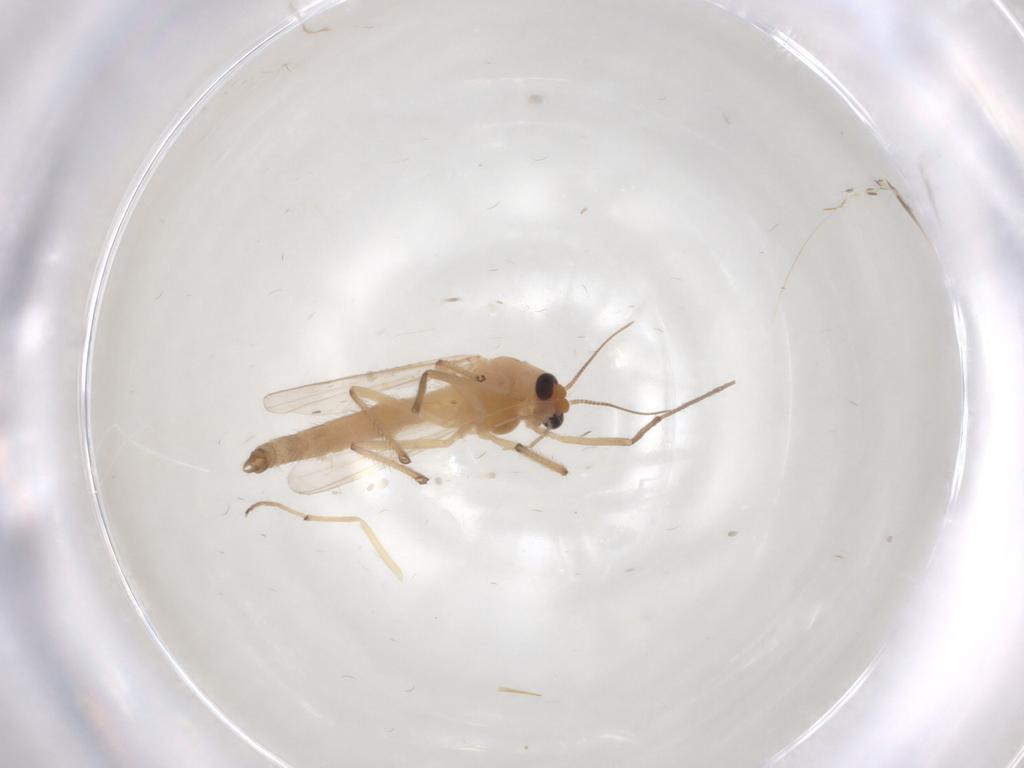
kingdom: Animalia
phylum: Arthropoda
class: Insecta
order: Diptera
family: Chironomidae
